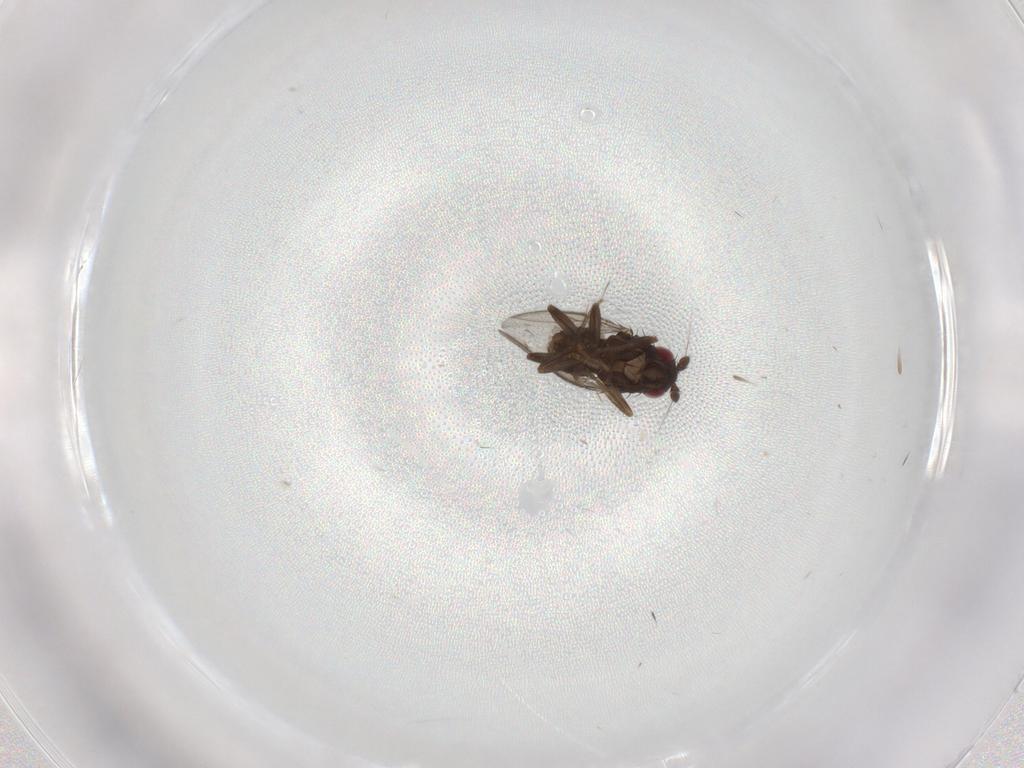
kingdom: Animalia
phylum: Arthropoda
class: Insecta
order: Diptera
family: Sphaeroceridae
